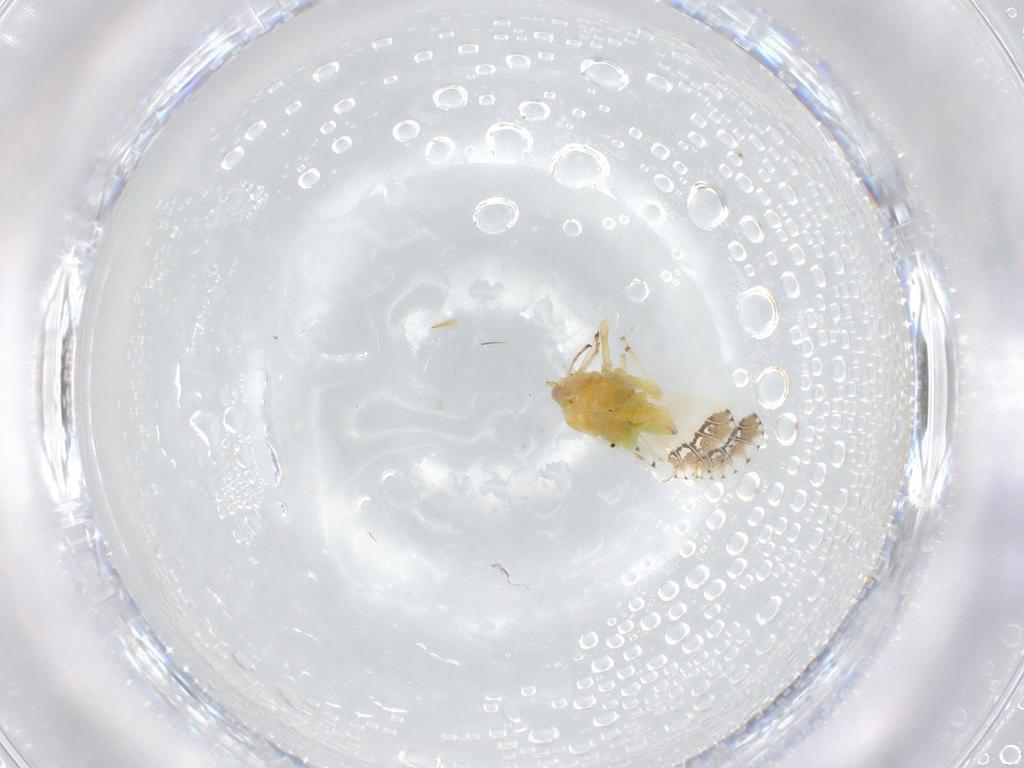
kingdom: Animalia
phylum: Arthropoda
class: Insecta
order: Hemiptera
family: Psyllidae
